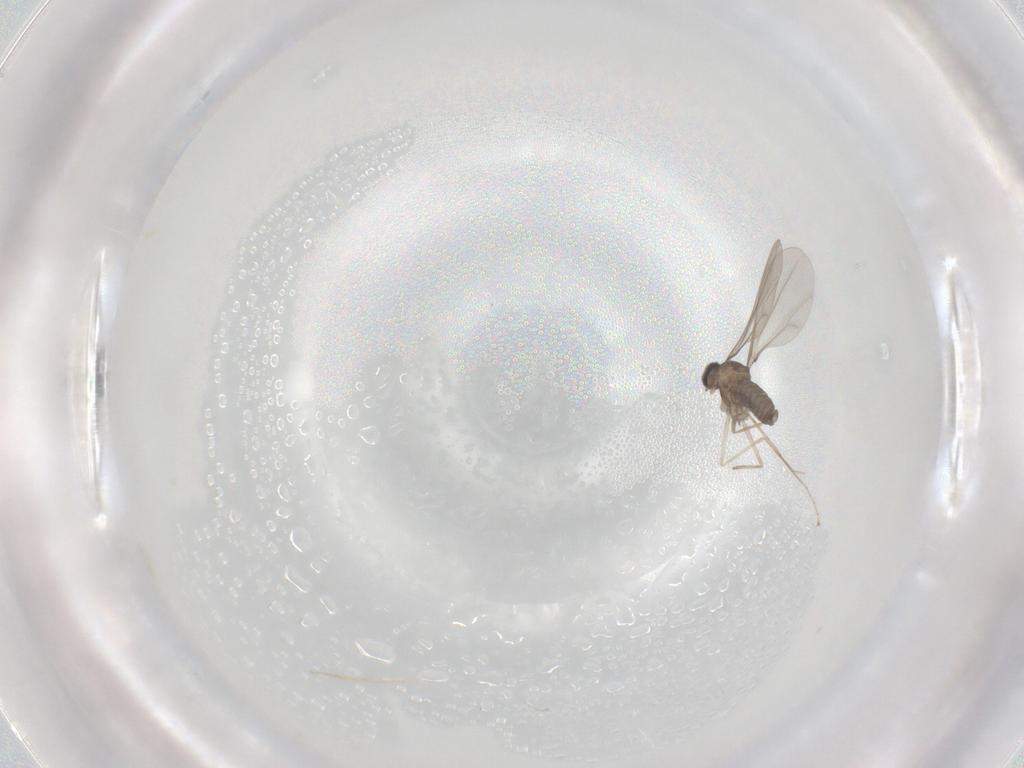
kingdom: Animalia
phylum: Arthropoda
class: Insecta
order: Diptera
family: Cecidomyiidae
